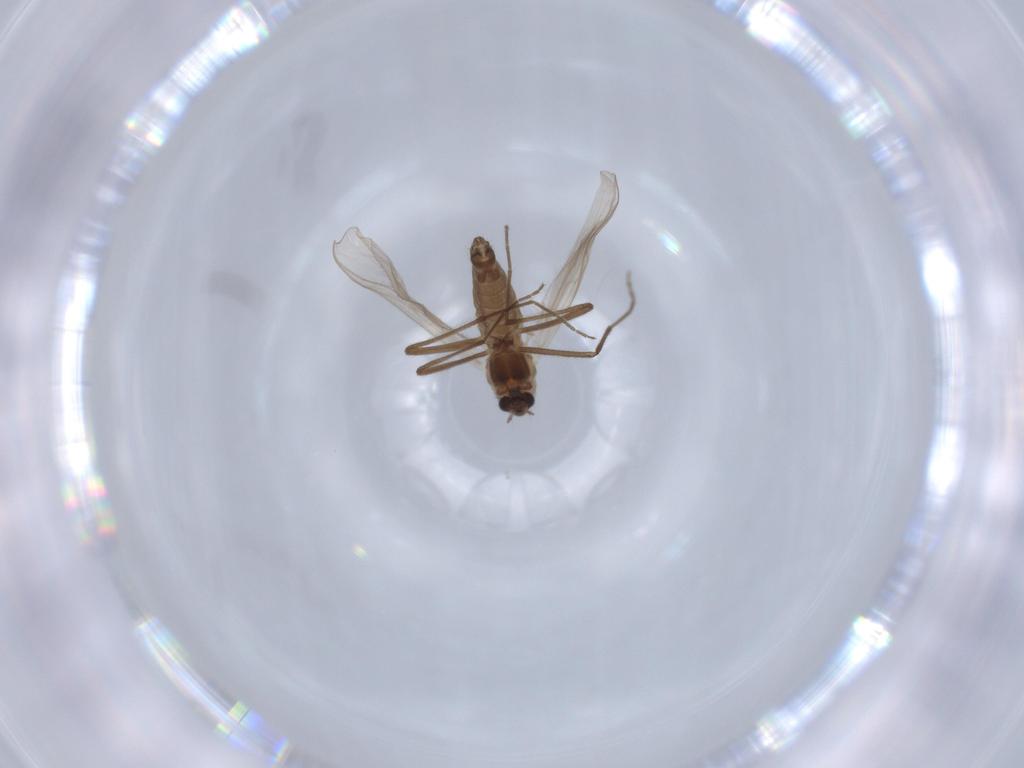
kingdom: Animalia
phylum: Arthropoda
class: Insecta
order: Diptera
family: Chironomidae
